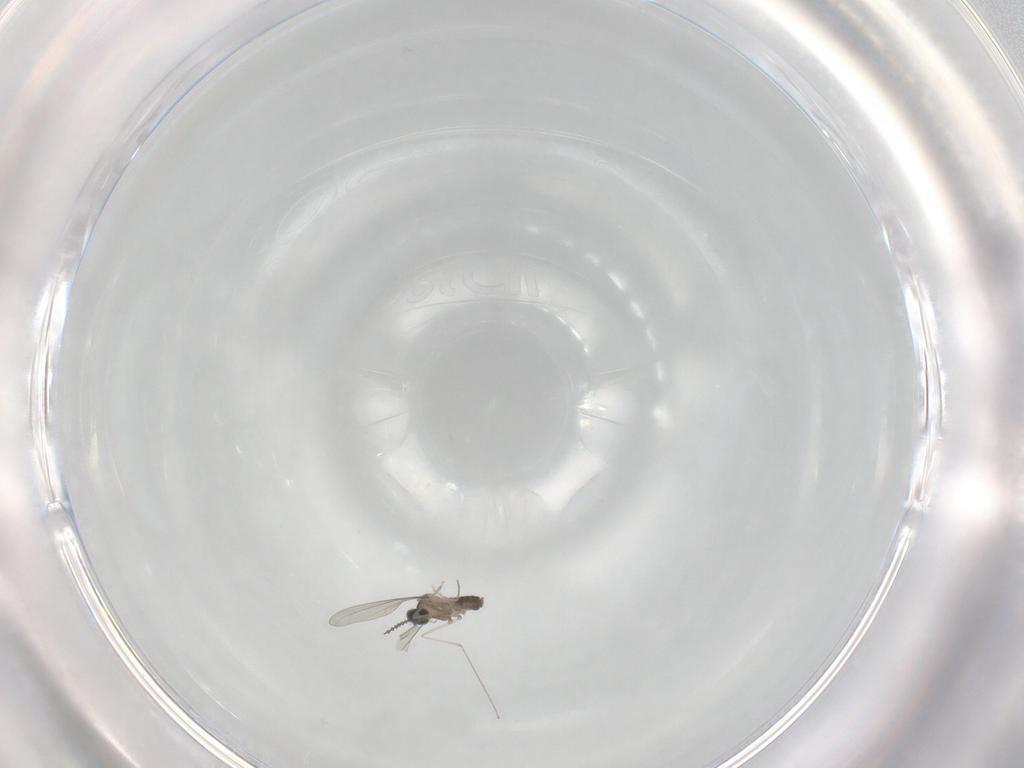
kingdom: Animalia
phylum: Arthropoda
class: Insecta
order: Diptera
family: Cecidomyiidae
